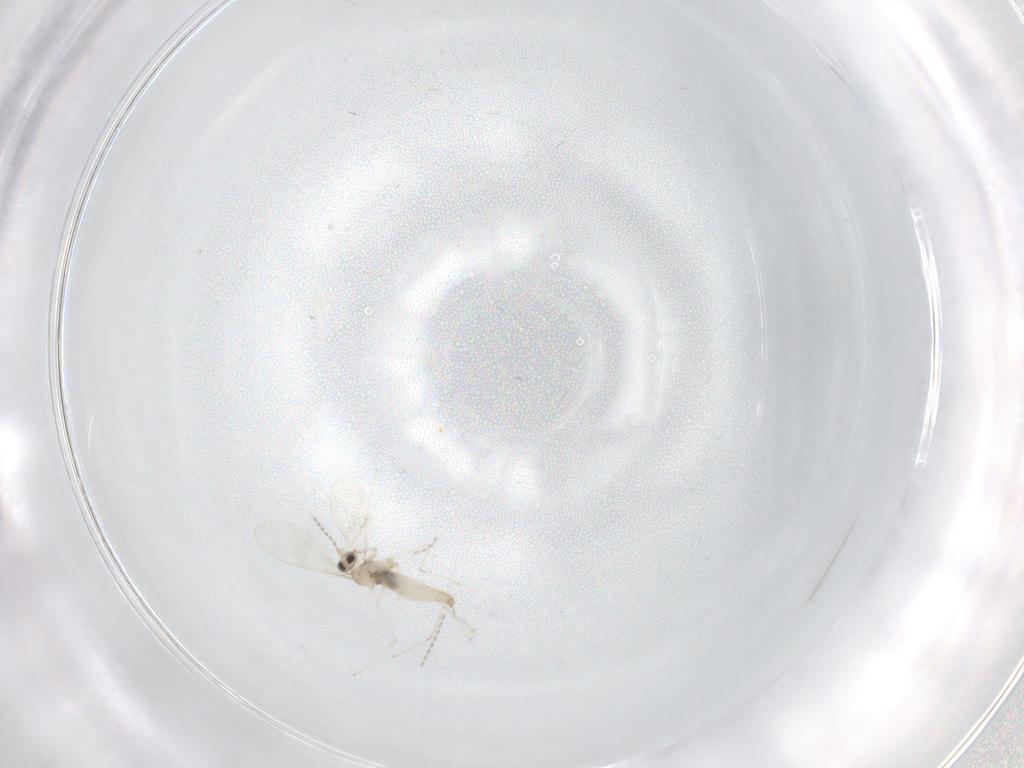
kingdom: Animalia
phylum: Arthropoda
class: Insecta
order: Diptera
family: Cecidomyiidae
